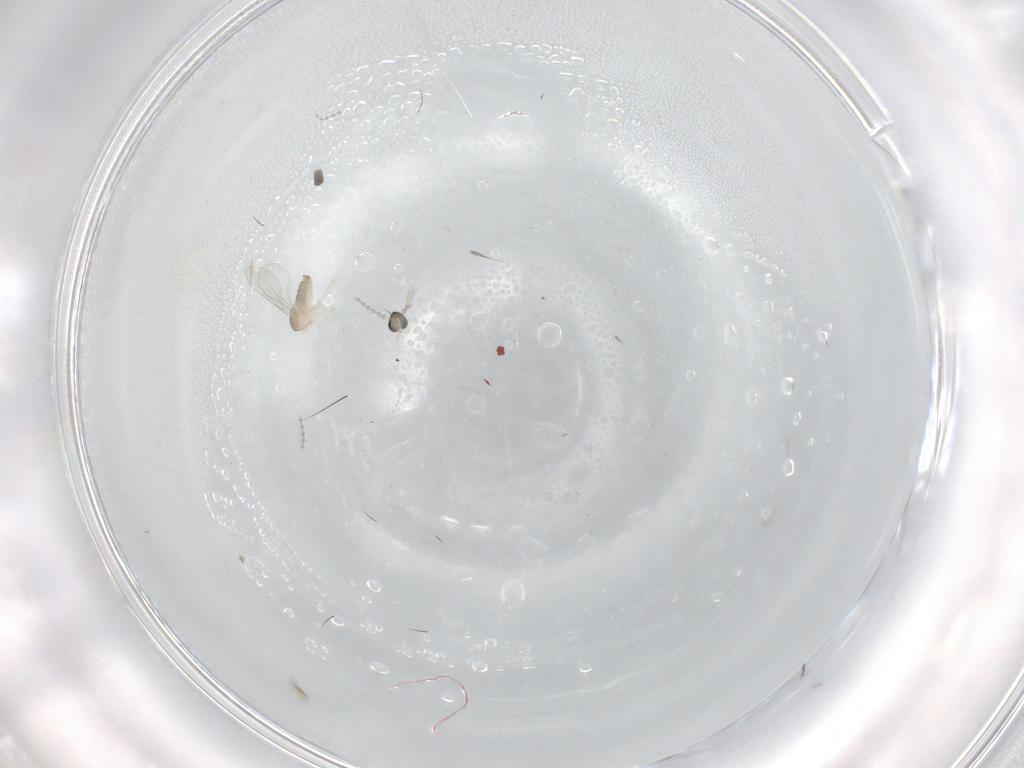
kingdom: Animalia
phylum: Arthropoda
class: Insecta
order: Diptera
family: Cecidomyiidae
